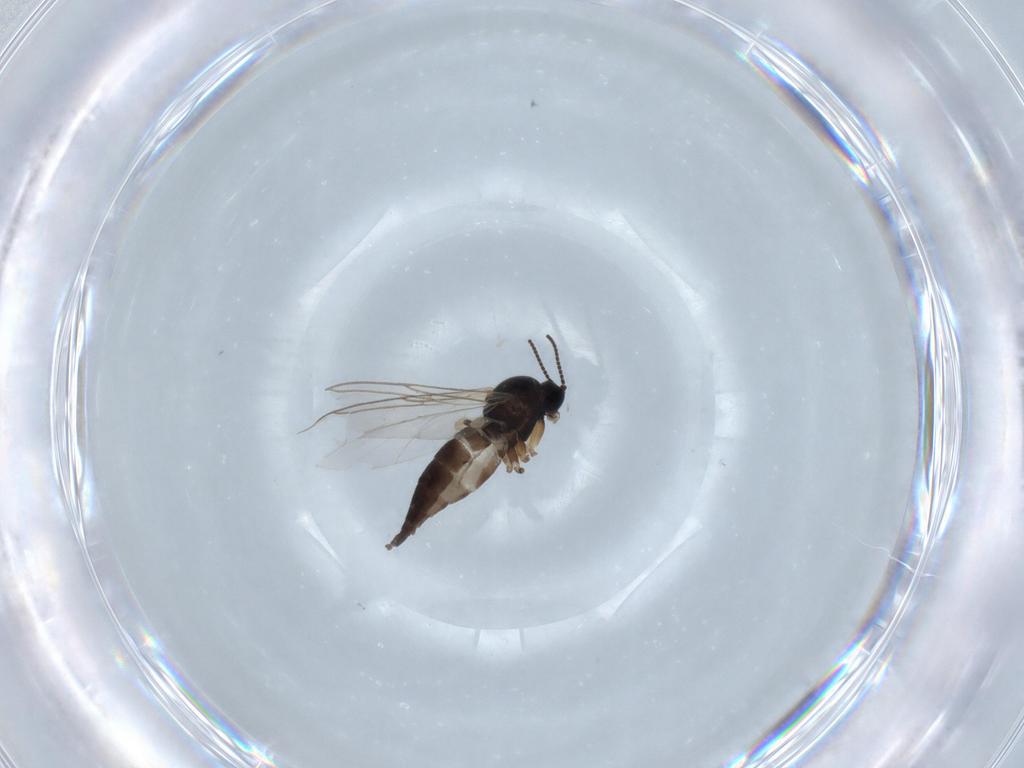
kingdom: Animalia
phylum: Arthropoda
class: Insecta
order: Diptera
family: Sciaridae
